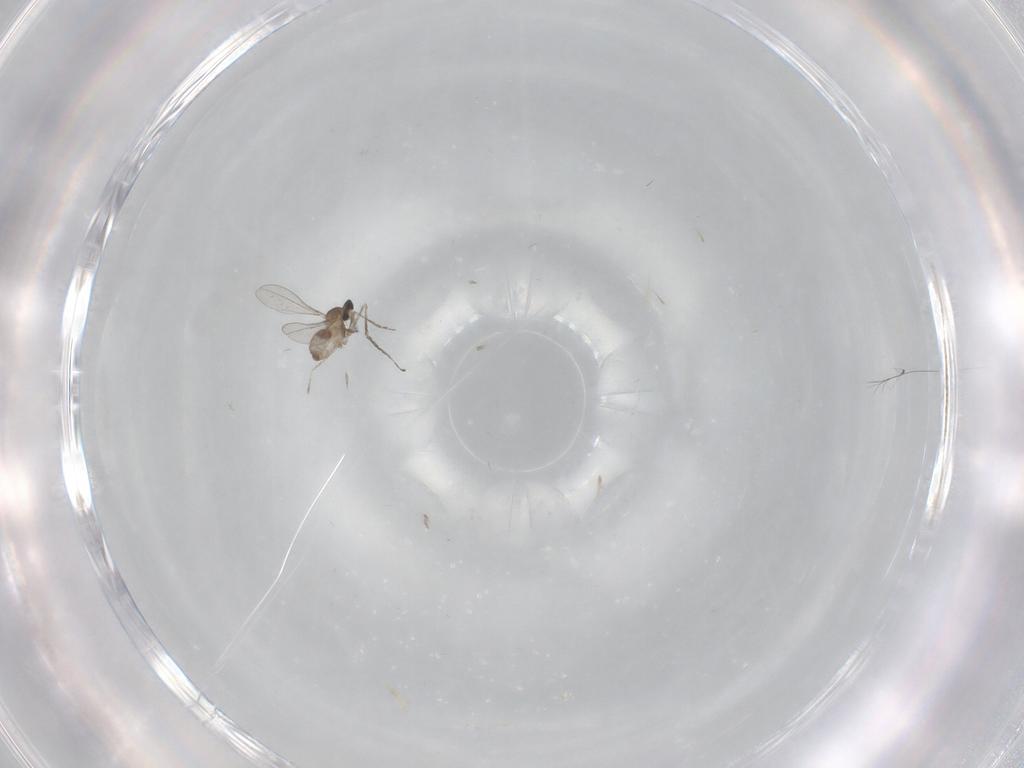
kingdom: Animalia
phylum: Arthropoda
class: Insecta
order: Diptera
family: Cecidomyiidae
